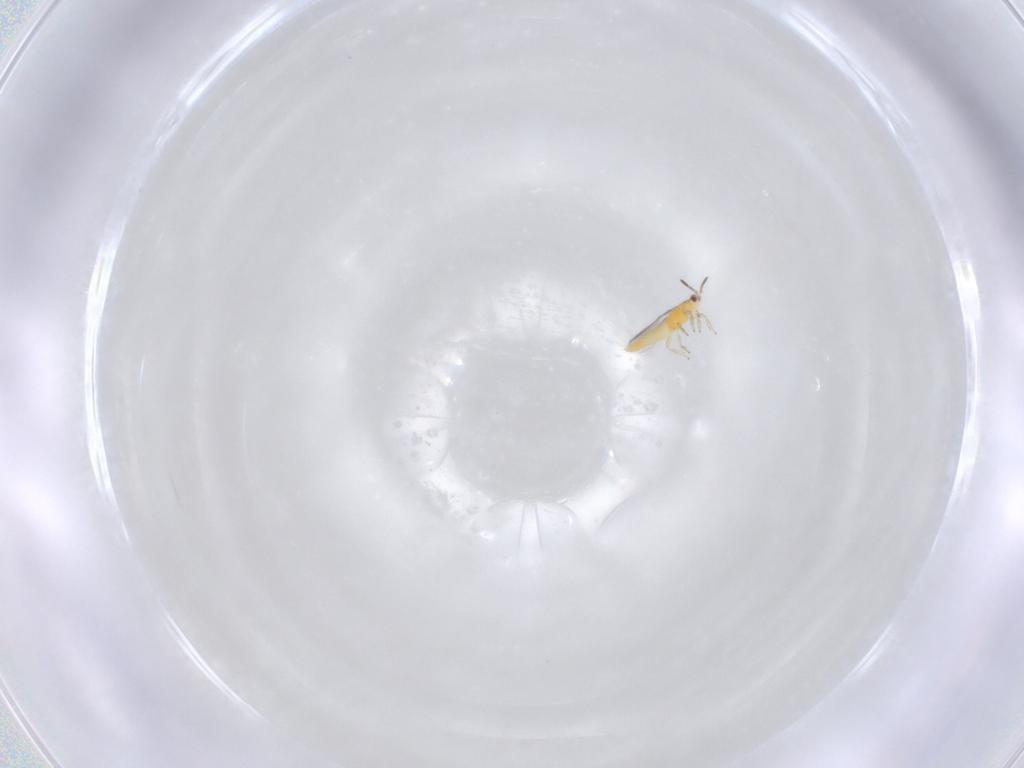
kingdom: Animalia
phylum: Arthropoda
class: Insecta
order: Thysanoptera
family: Thripidae
